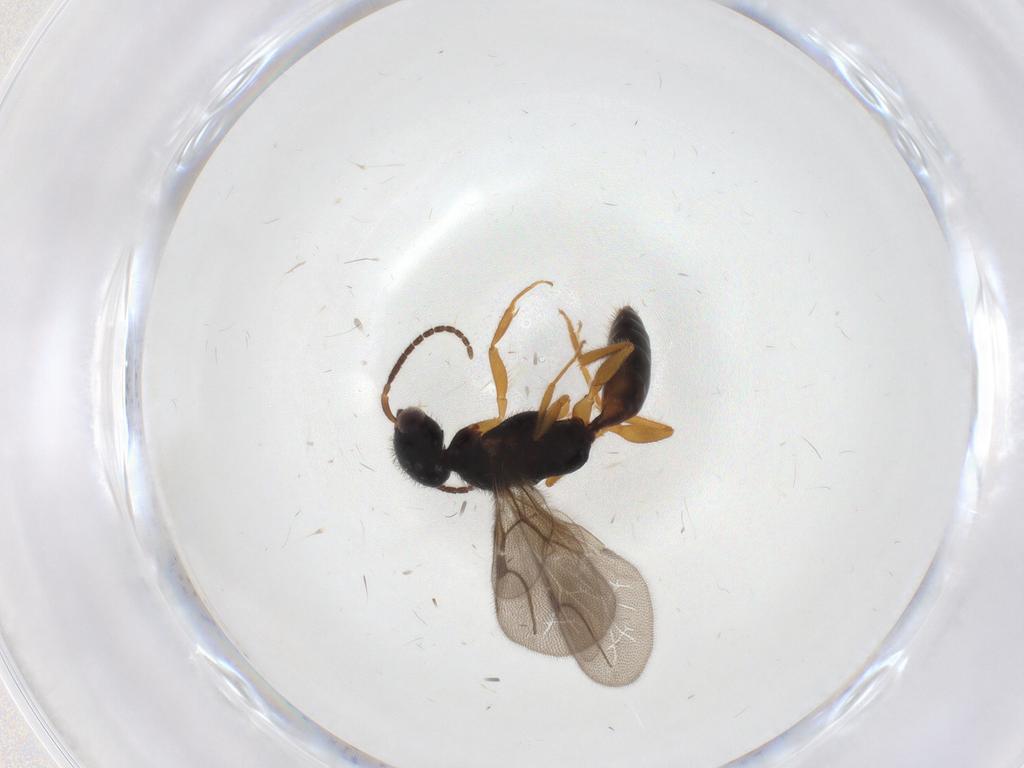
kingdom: Animalia
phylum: Arthropoda
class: Insecta
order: Hymenoptera
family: Bethylidae
